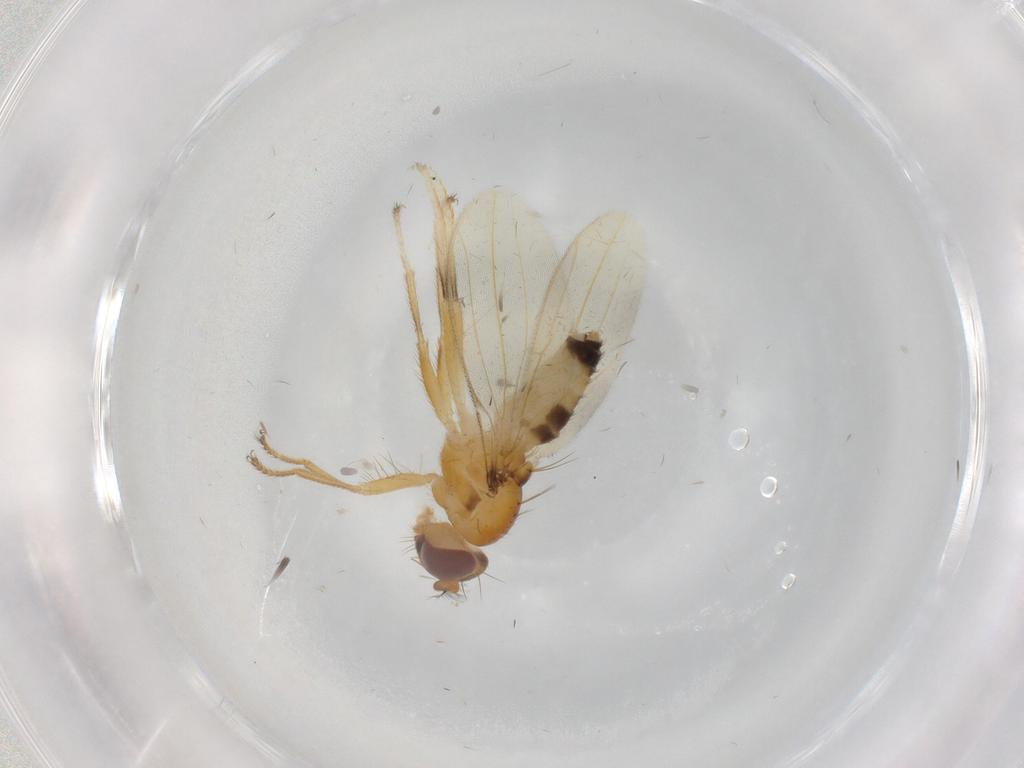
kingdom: Animalia
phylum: Arthropoda
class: Insecta
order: Diptera
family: Periscelididae
